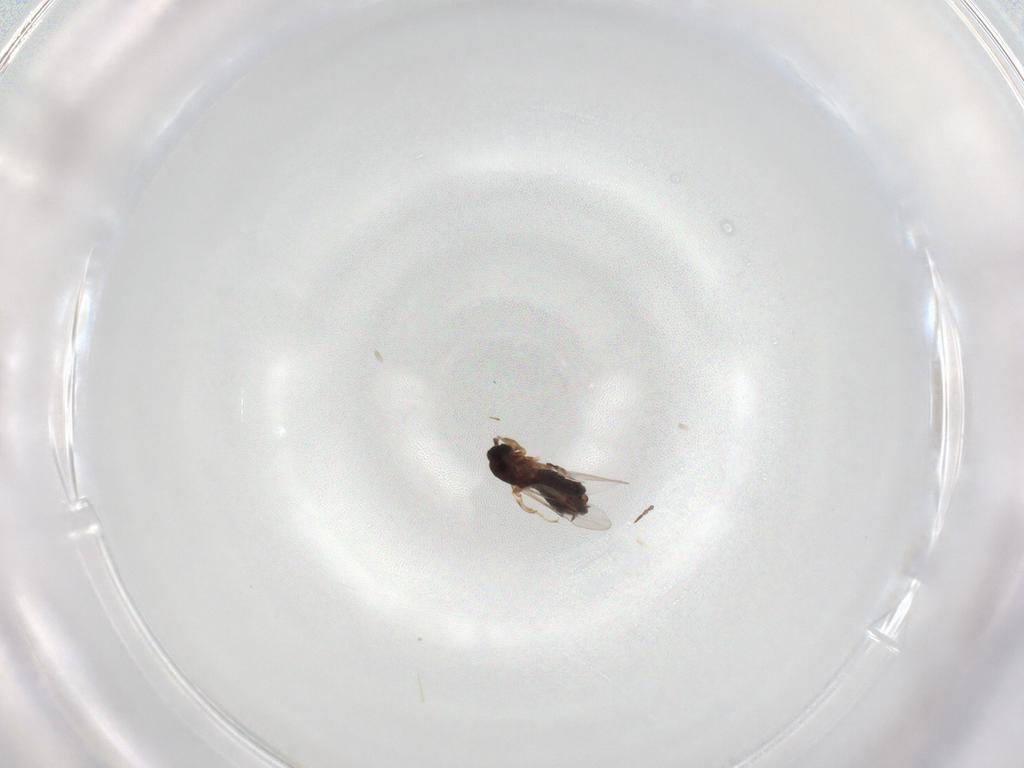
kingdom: Animalia
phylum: Arthropoda
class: Insecta
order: Diptera
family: Scatopsidae
